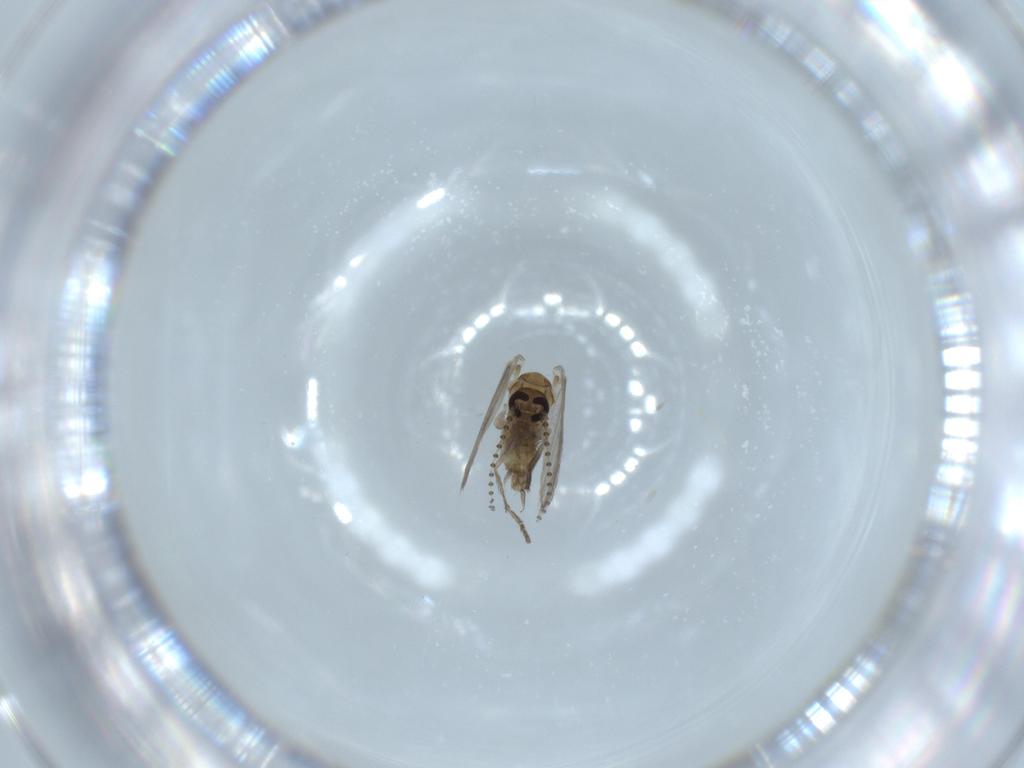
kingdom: Animalia
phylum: Arthropoda
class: Insecta
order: Diptera
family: Psychodidae
